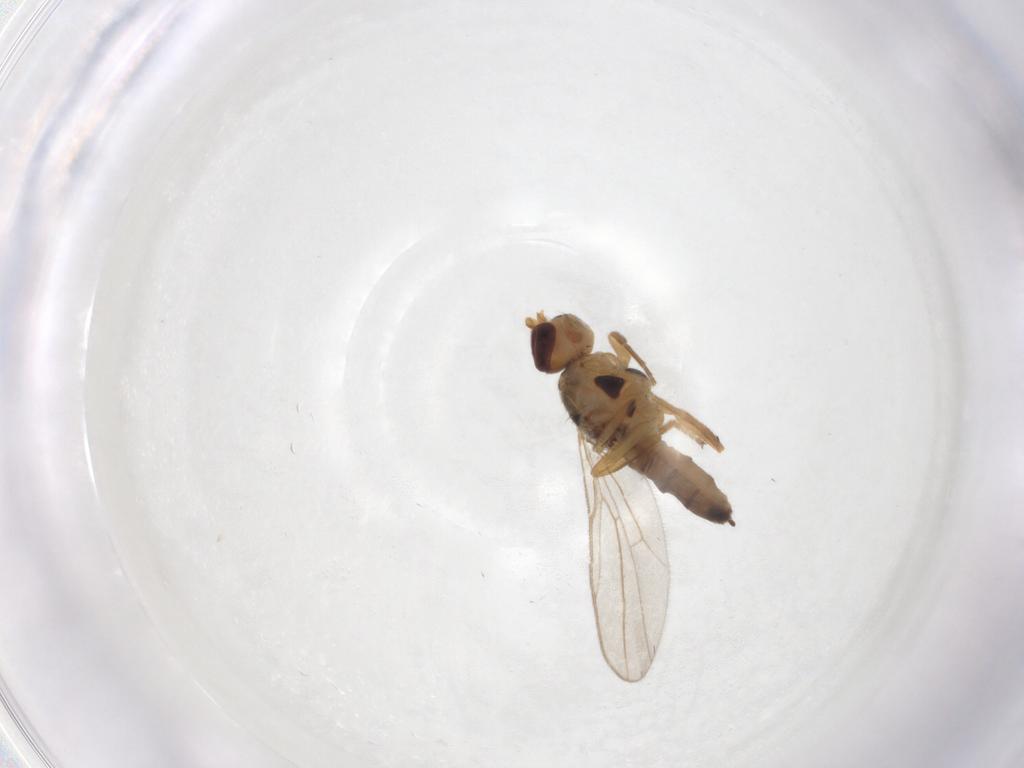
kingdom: Animalia
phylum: Arthropoda
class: Insecta
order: Diptera
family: Chloropidae
